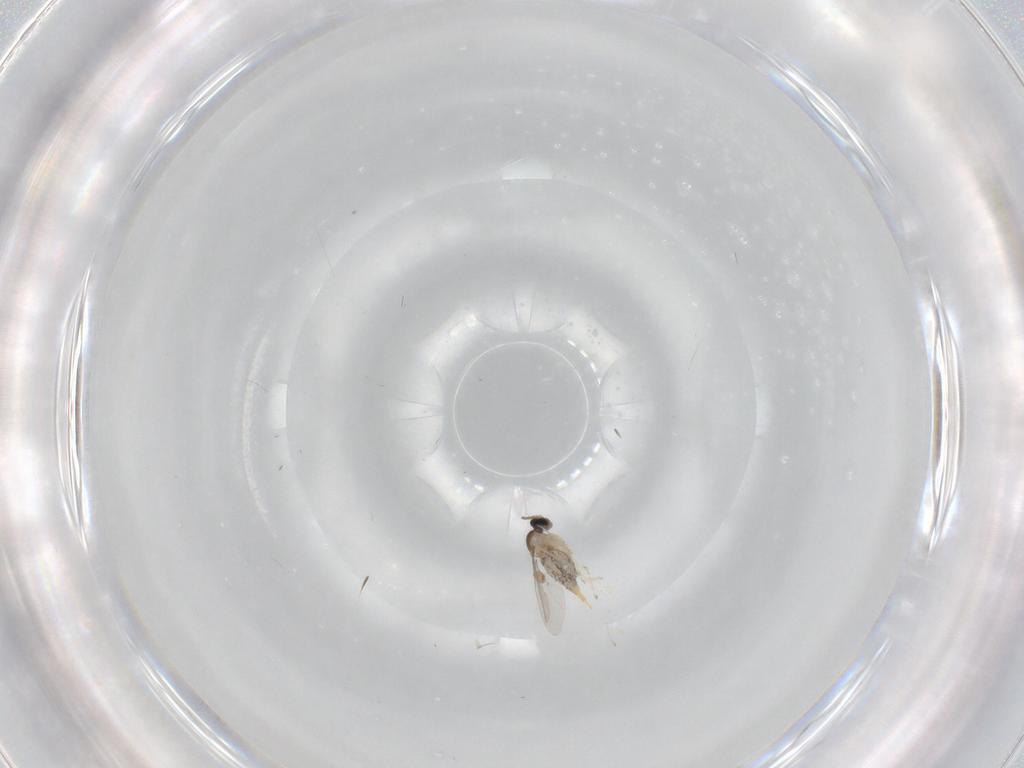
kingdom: Animalia
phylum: Arthropoda
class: Insecta
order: Diptera
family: Cecidomyiidae
